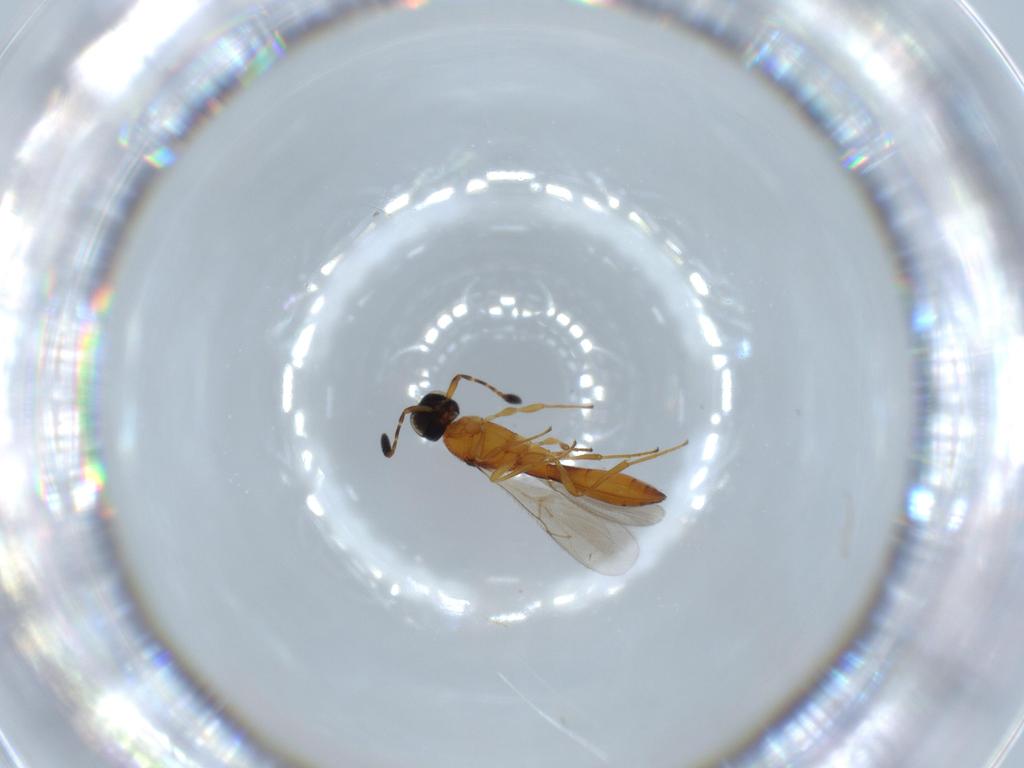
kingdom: Animalia
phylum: Arthropoda
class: Insecta
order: Hymenoptera
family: Scelionidae
